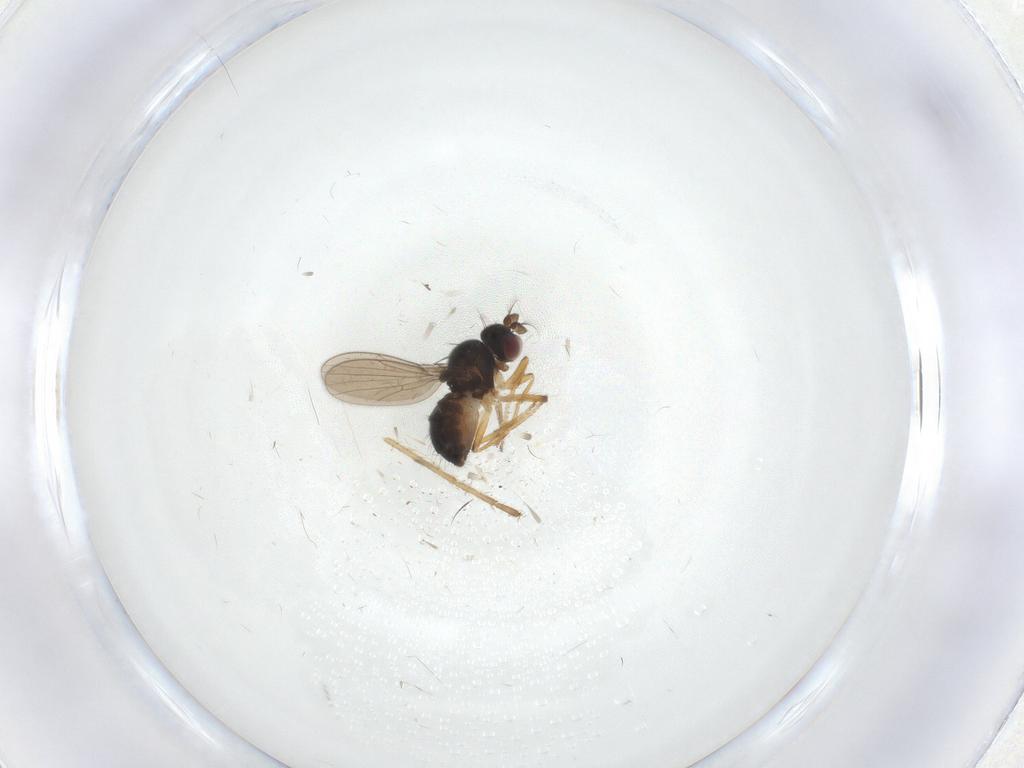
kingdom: Animalia
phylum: Arthropoda
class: Insecta
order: Diptera
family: Ephydridae
